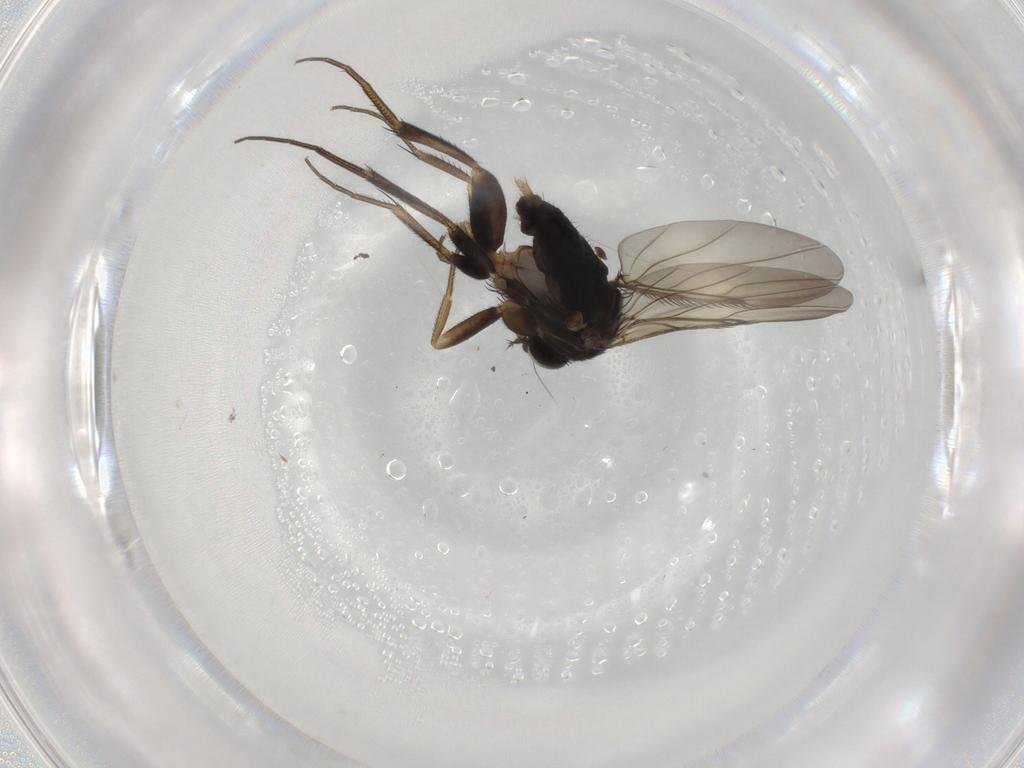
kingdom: Animalia
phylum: Arthropoda
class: Insecta
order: Diptera
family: Phoridae
